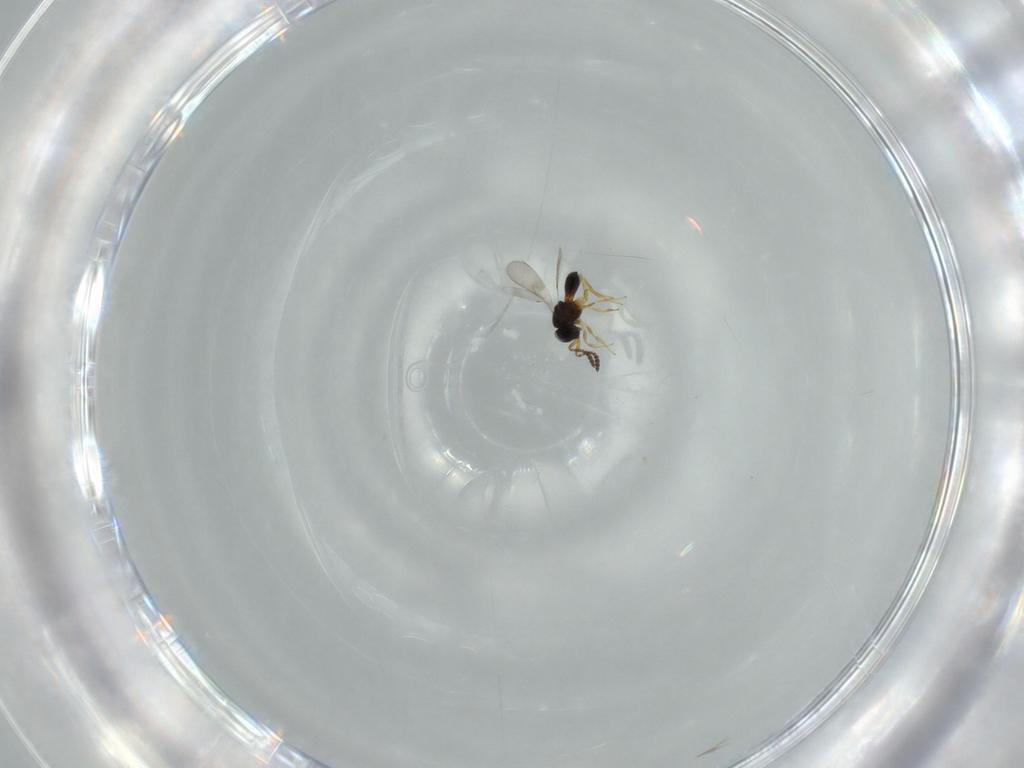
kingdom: Animalia
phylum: Arthropoda
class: Insecta
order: Hymenoptera
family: Scelionidae
